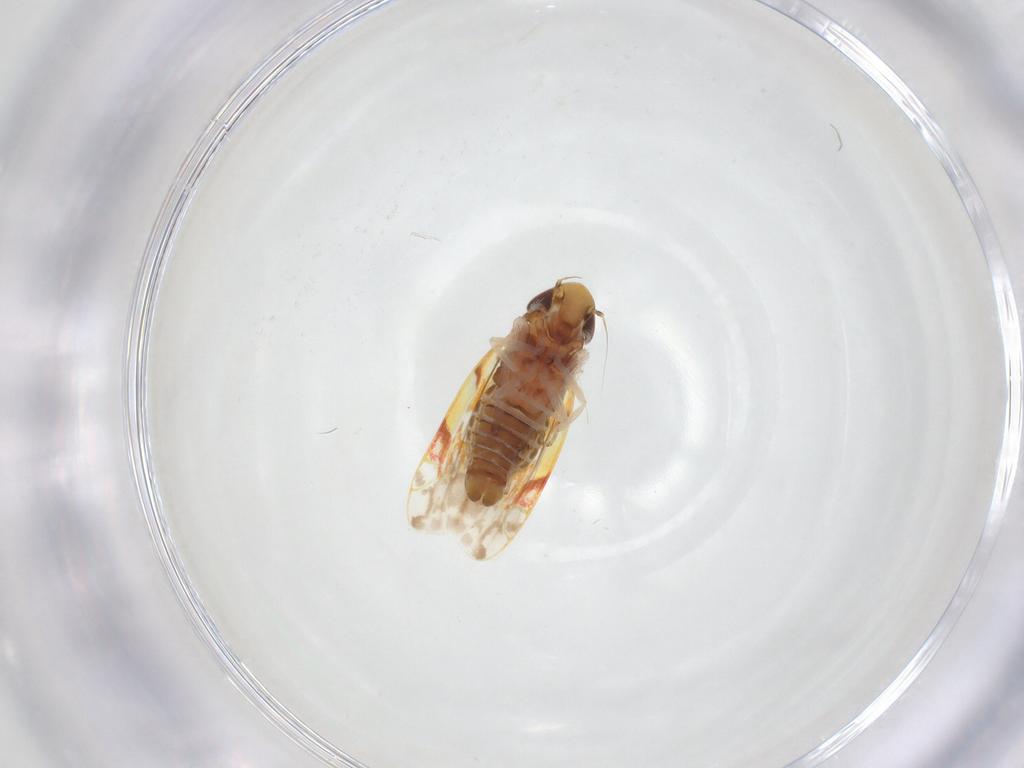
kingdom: Animalia
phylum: Arthropoda
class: Insecta
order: Hemiptera
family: Cicadellidae
